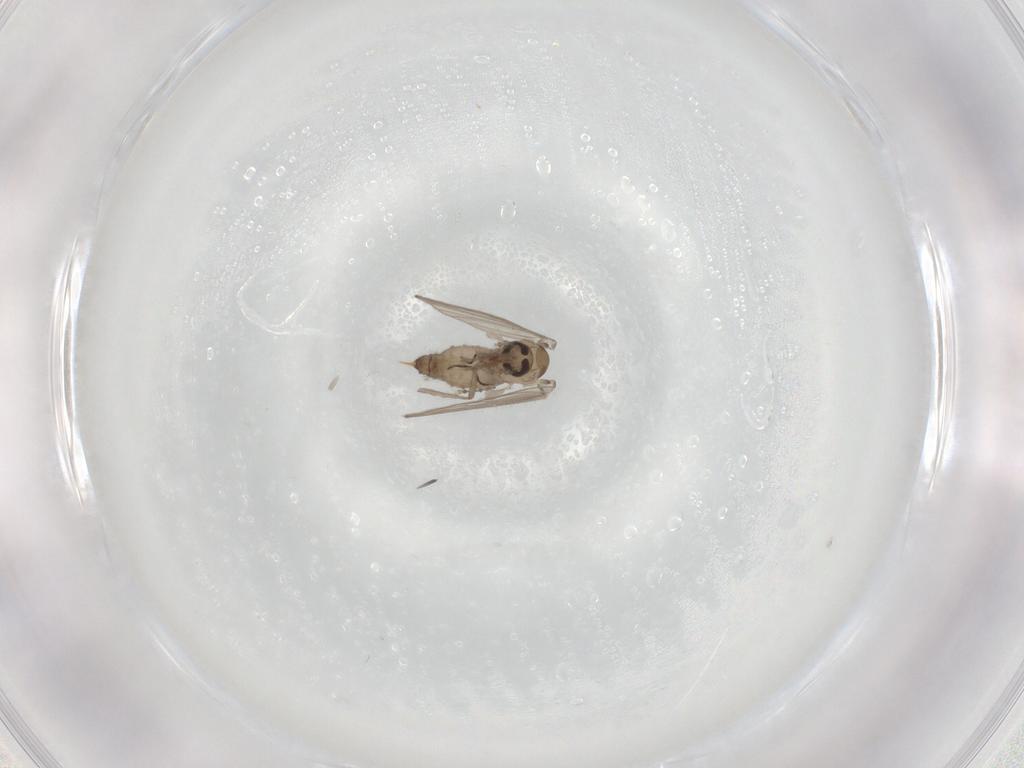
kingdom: Animalia
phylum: Arthropoda
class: Insecta
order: Diptera
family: Psychodidae
